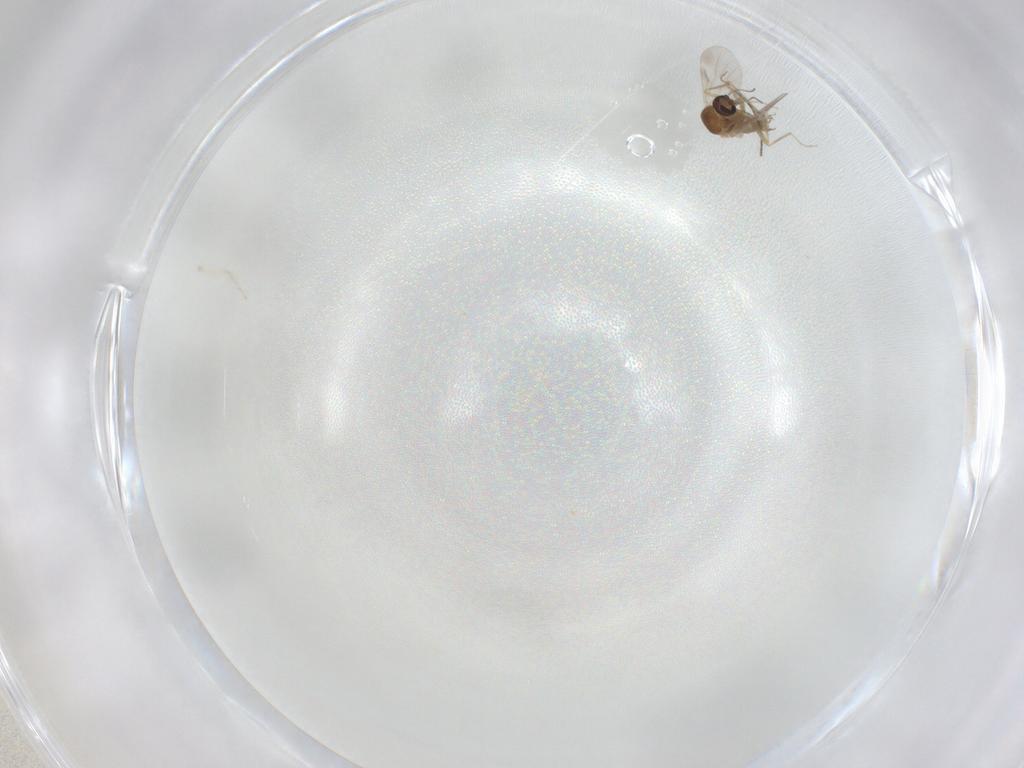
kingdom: Animalia
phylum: Arthropoda
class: Insecta
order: Diptera
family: Ceratopogonidae
